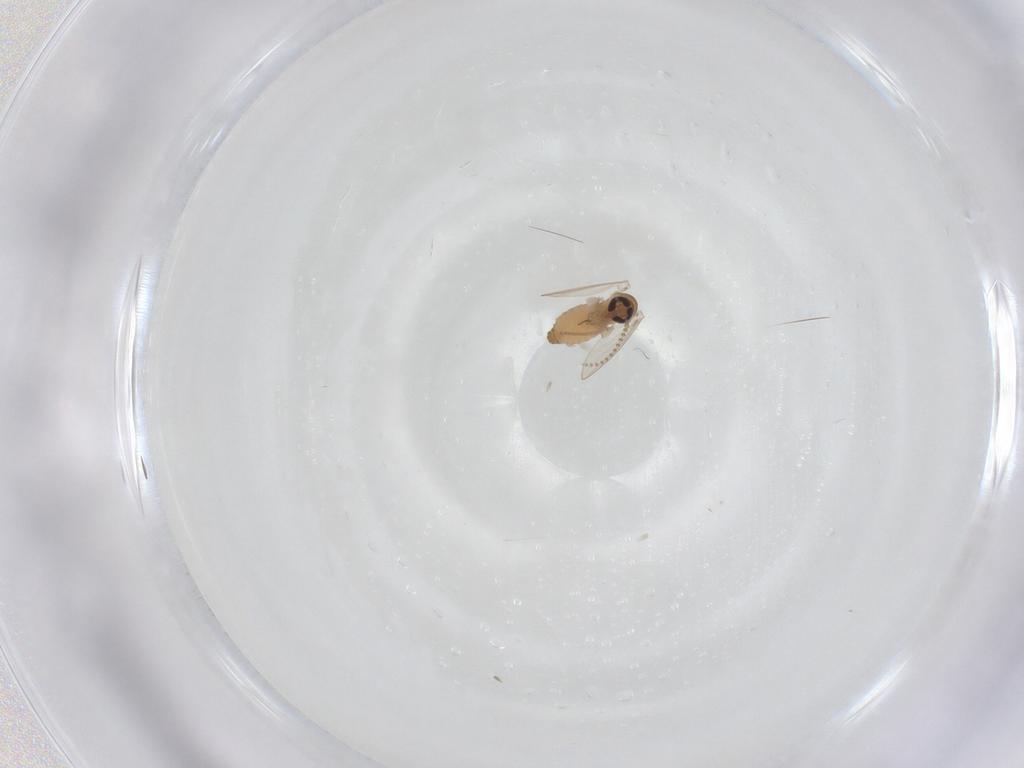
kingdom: Animalia
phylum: Arthropoda
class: Insecta
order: Diptera
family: Psychodidae
